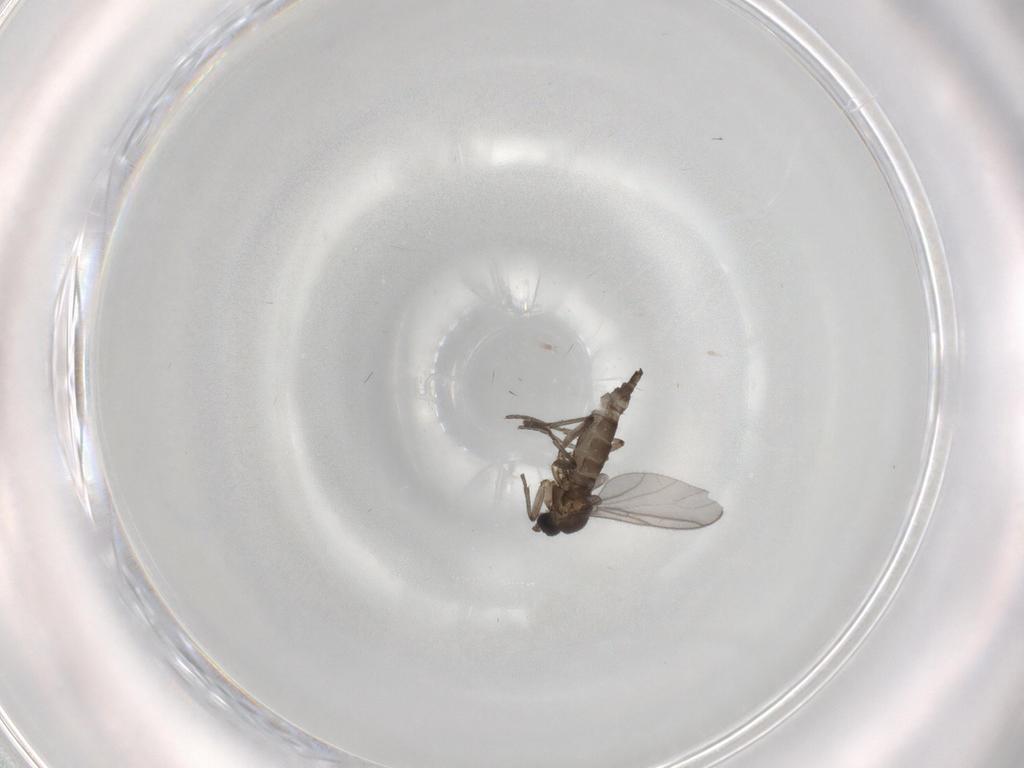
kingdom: Animalia
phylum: Arthropoda
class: Insecta
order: Diptera
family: Sciaridae
